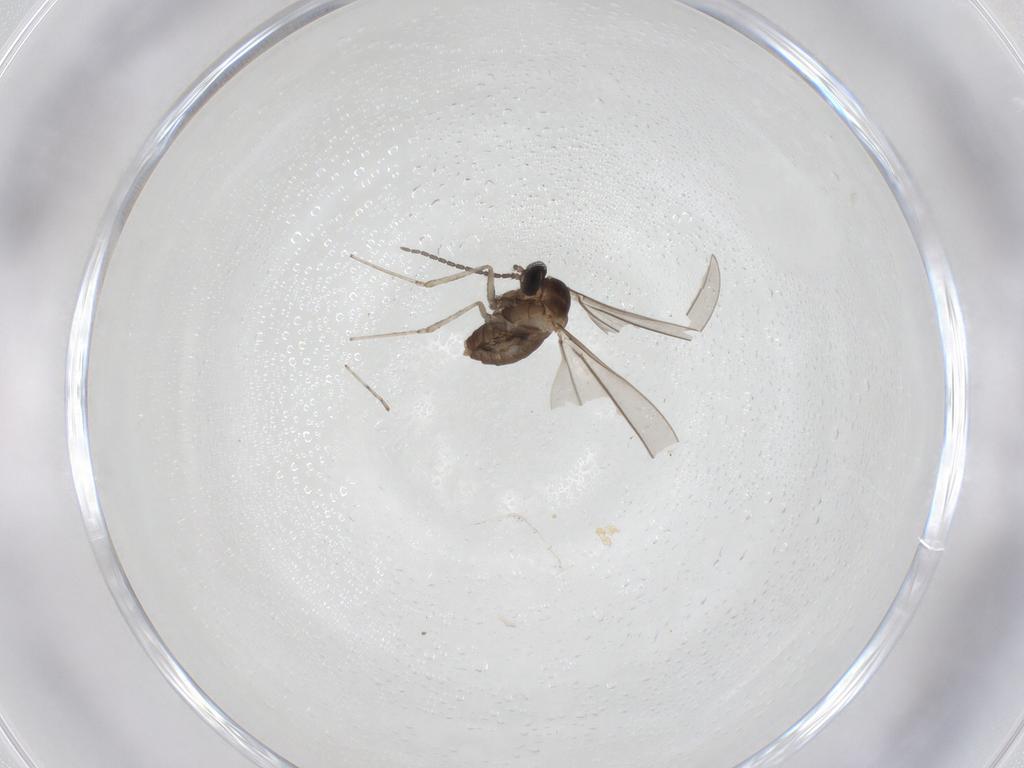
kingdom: Animalia
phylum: Arthropoda
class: Insecta
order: Diptera
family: Cecidomyiidae
